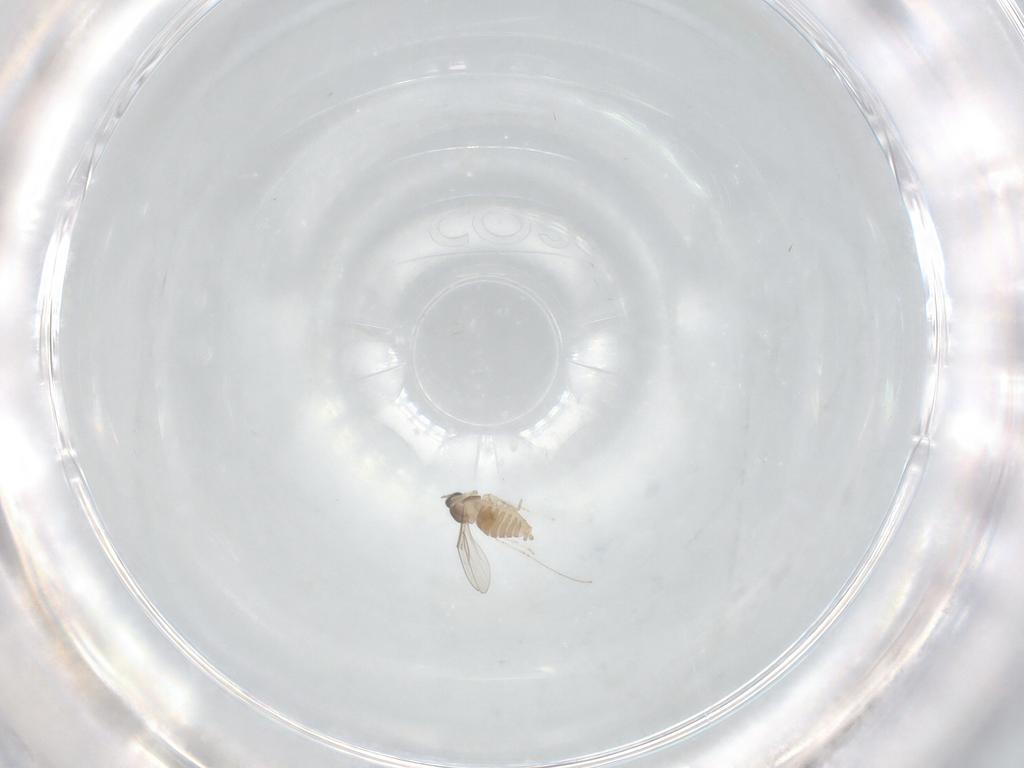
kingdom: Animalia
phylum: Arthropoda
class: Insecta
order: Diptera
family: Cecidomyiidae
